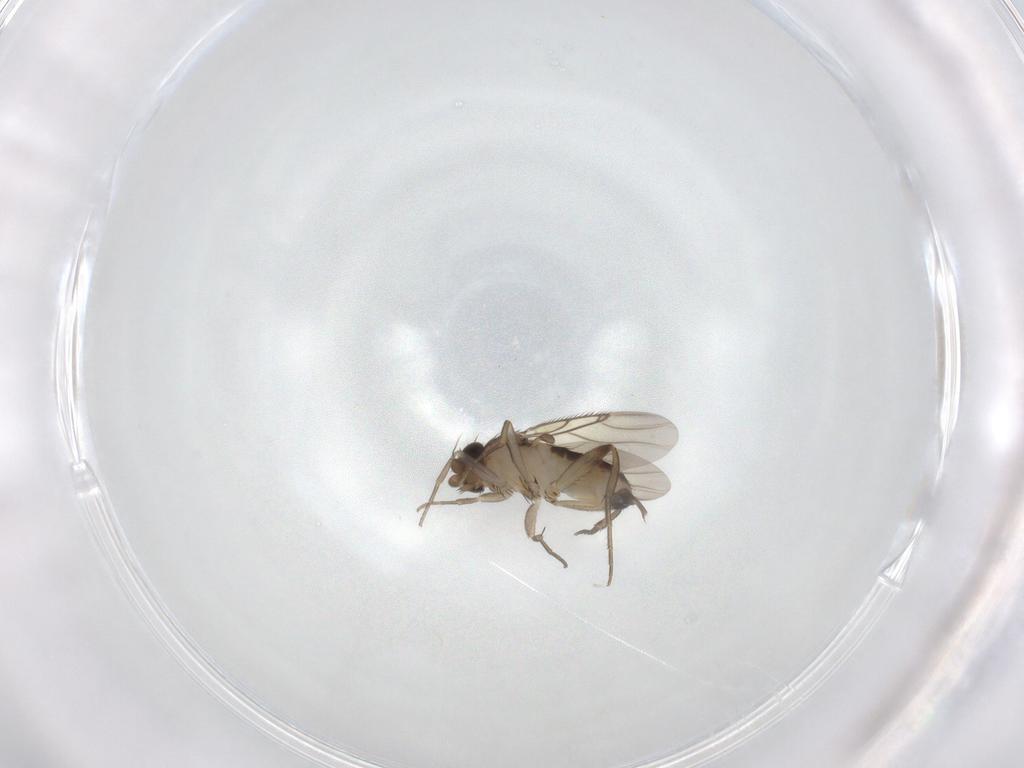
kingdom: Animalia
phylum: Arthropoda
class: Insecta
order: Diptera
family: Phoridae
